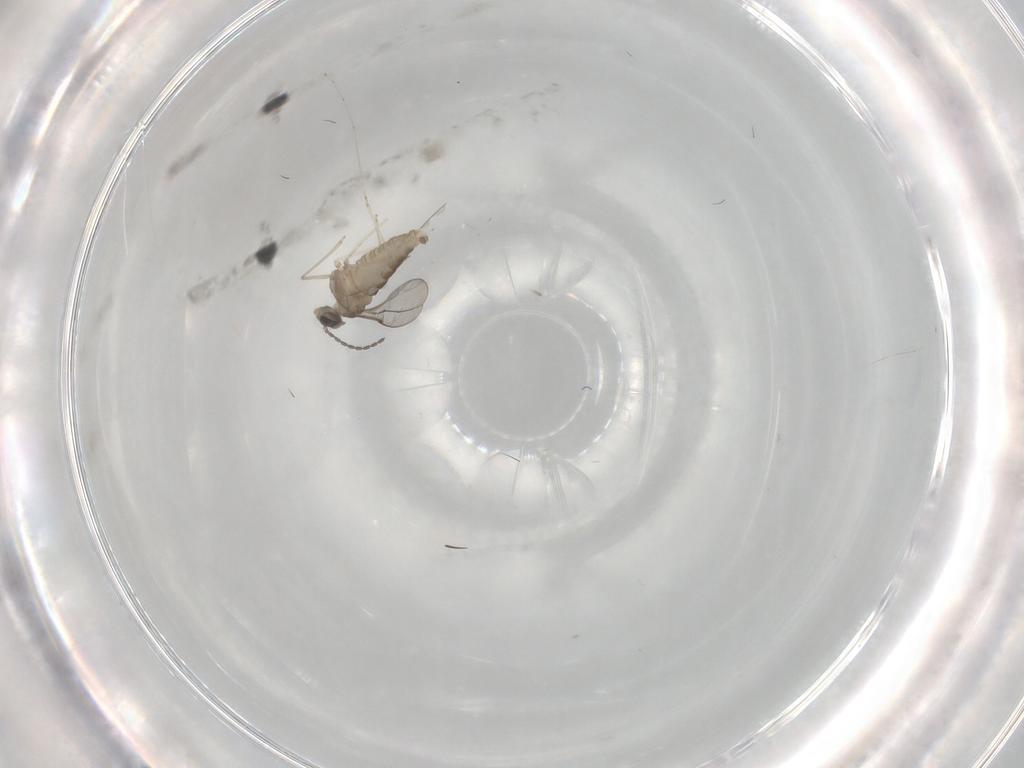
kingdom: Animalia
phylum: Arthropoda
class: Insecta
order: Diptera
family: Cecidomyiidae
